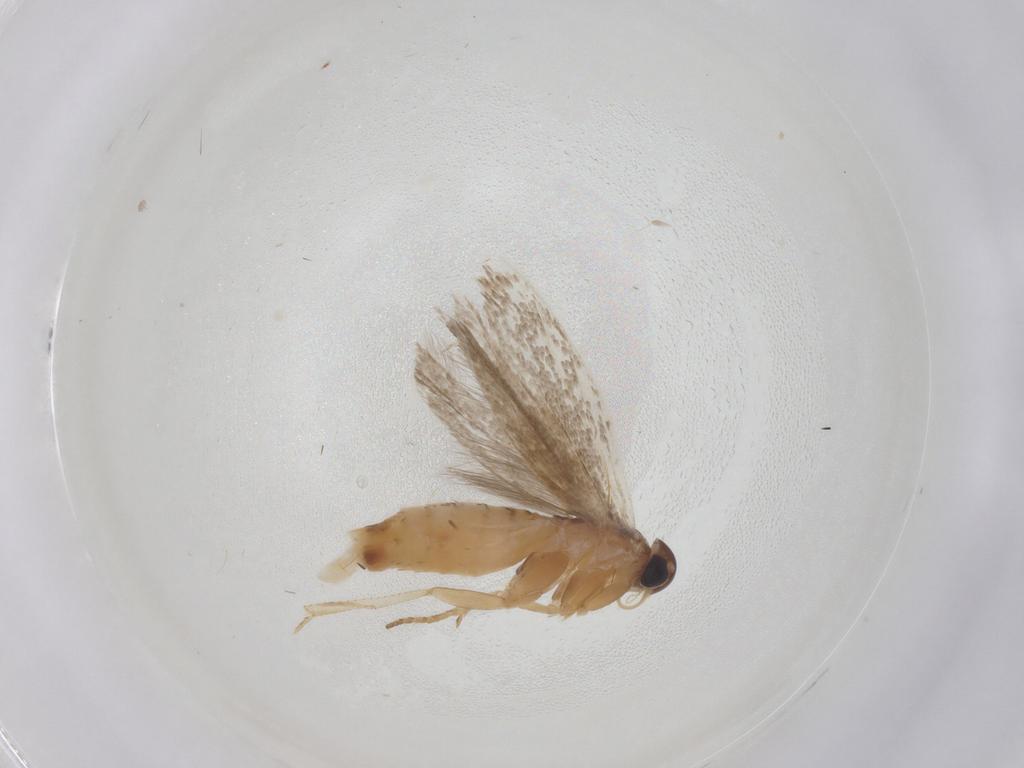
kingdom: Animalia
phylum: Arthropoda
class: Insecta
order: Lepidoptera
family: Gelechiidae
